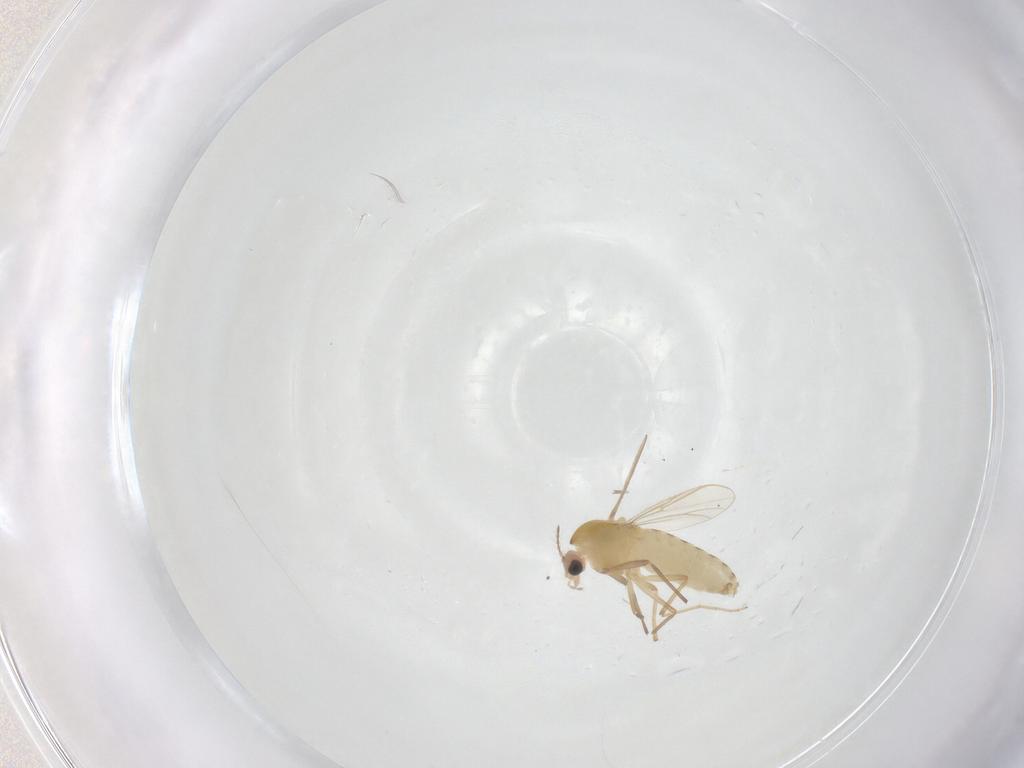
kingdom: Animalia
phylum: Arthropoda
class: Insecta
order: Diptera
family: Chironomidae
